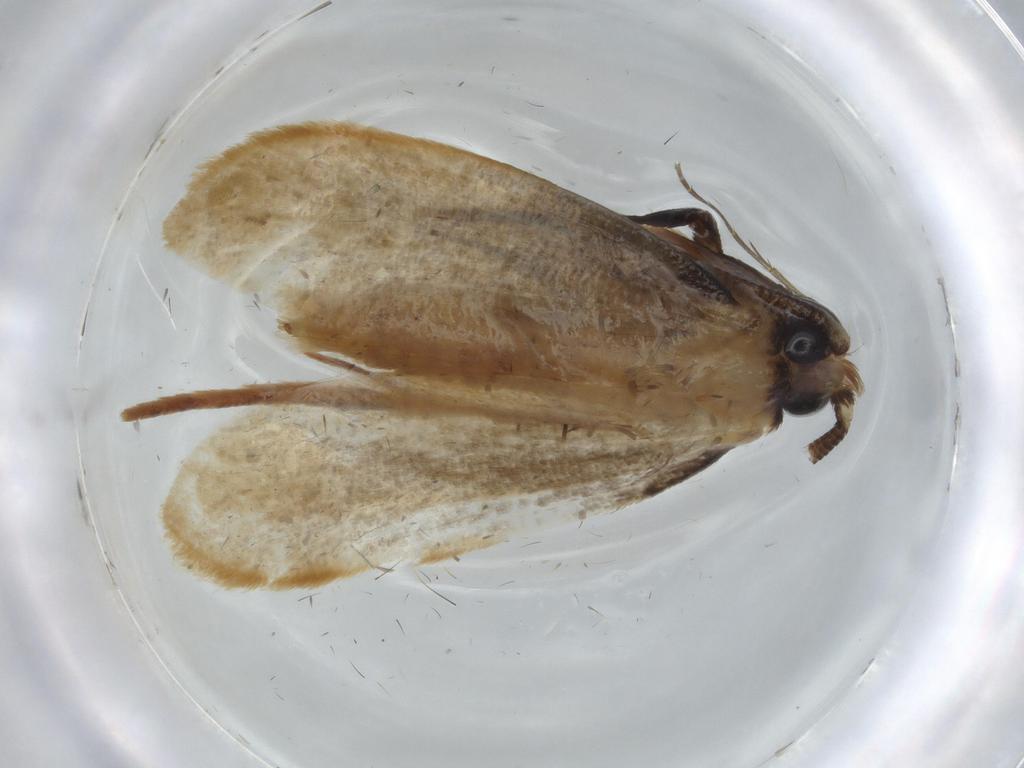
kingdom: Animalia
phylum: Arthropoda
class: Insecta
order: Lepidoptera
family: Tineidae
